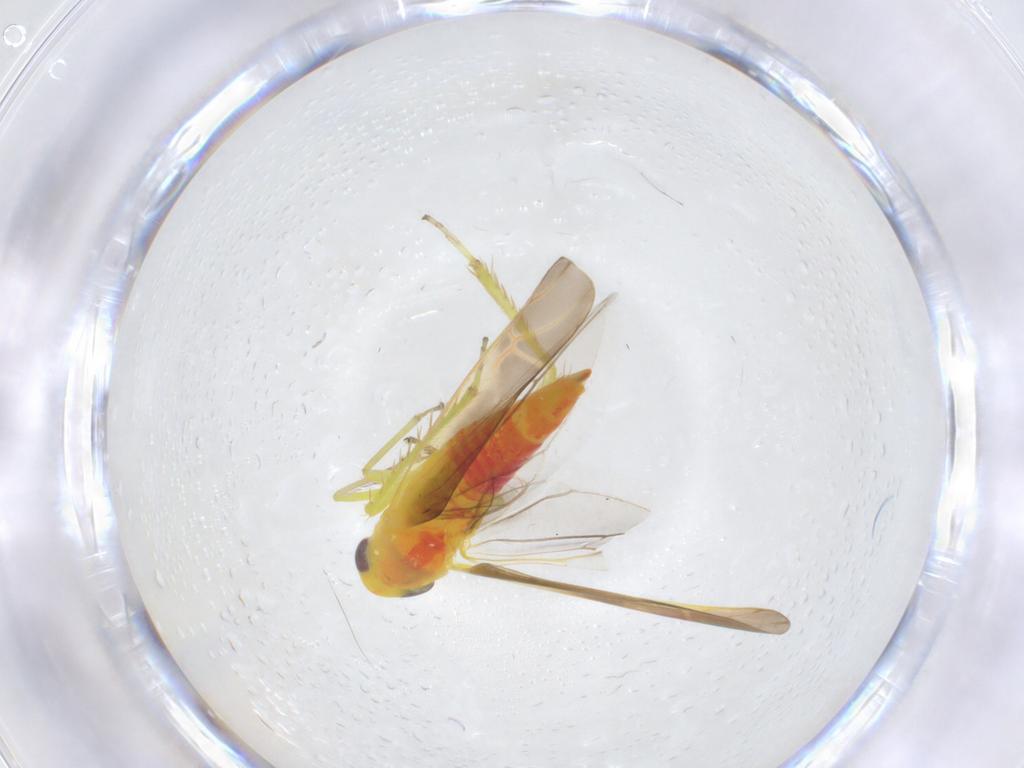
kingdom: Animalia
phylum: Arthropoda
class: Insecta
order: Hemiptera
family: Cicadellidae
